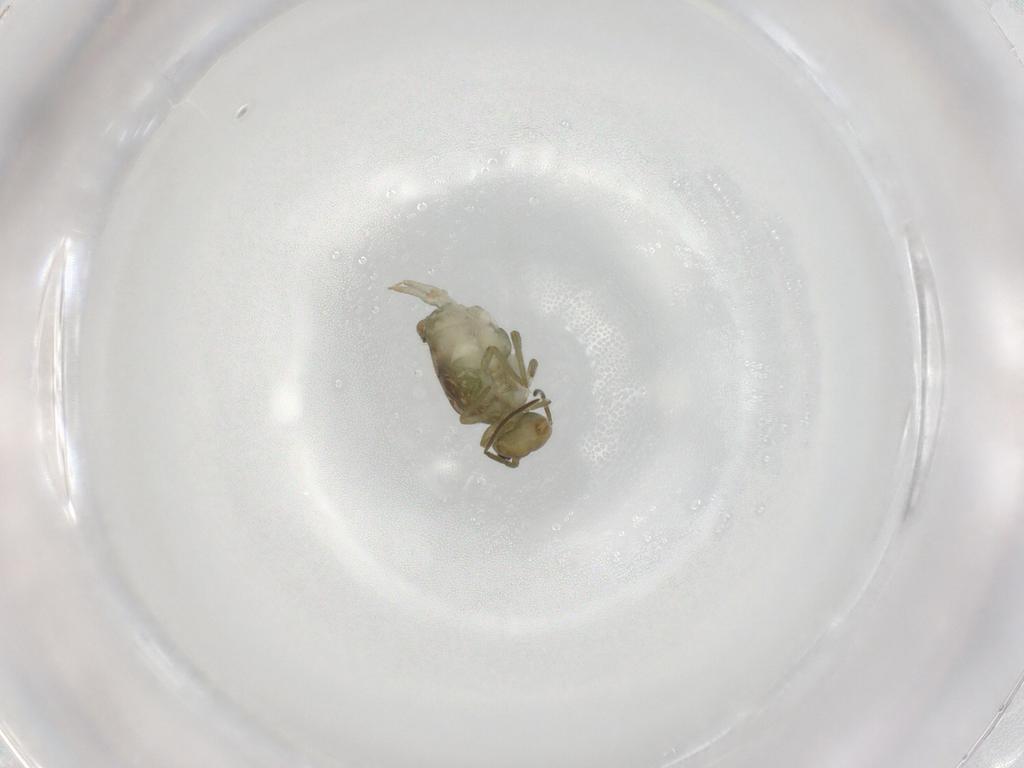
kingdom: Animalia
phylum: Arthropoda
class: Collembola
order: Symphypleona
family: Sminthuridae
